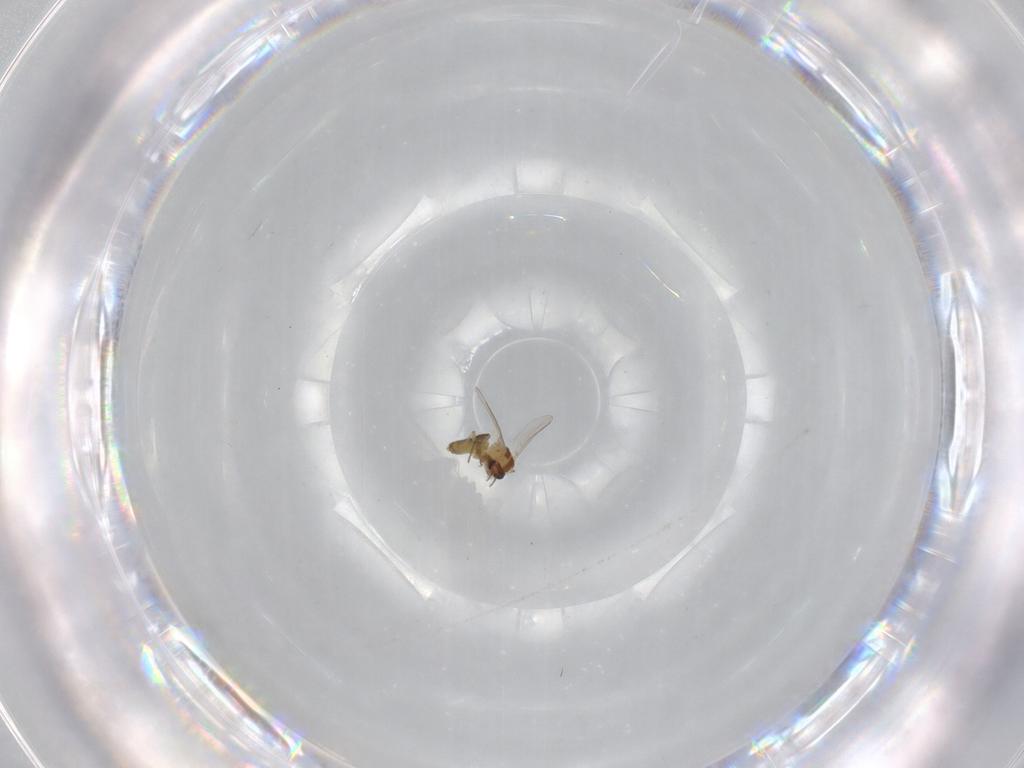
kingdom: Animalia
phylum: Arthropoda
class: Insecta
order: Diptera
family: Chironomidae
